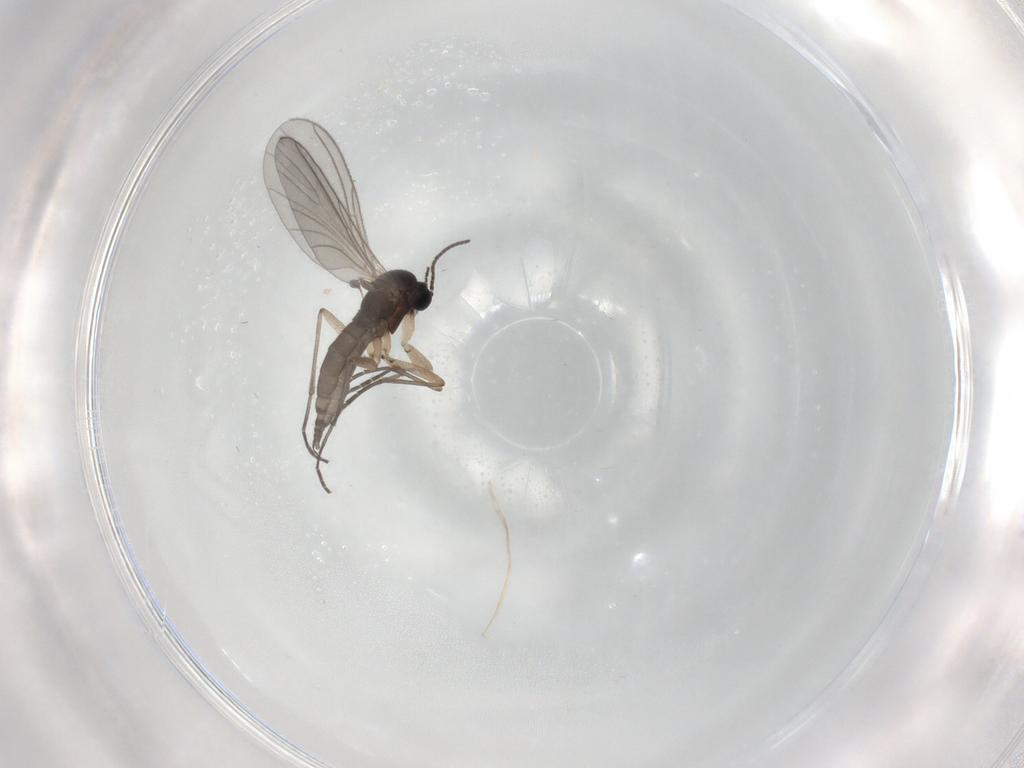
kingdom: Animalia
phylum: Arthropoda
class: Insecta
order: Diptera
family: Sciaridae
